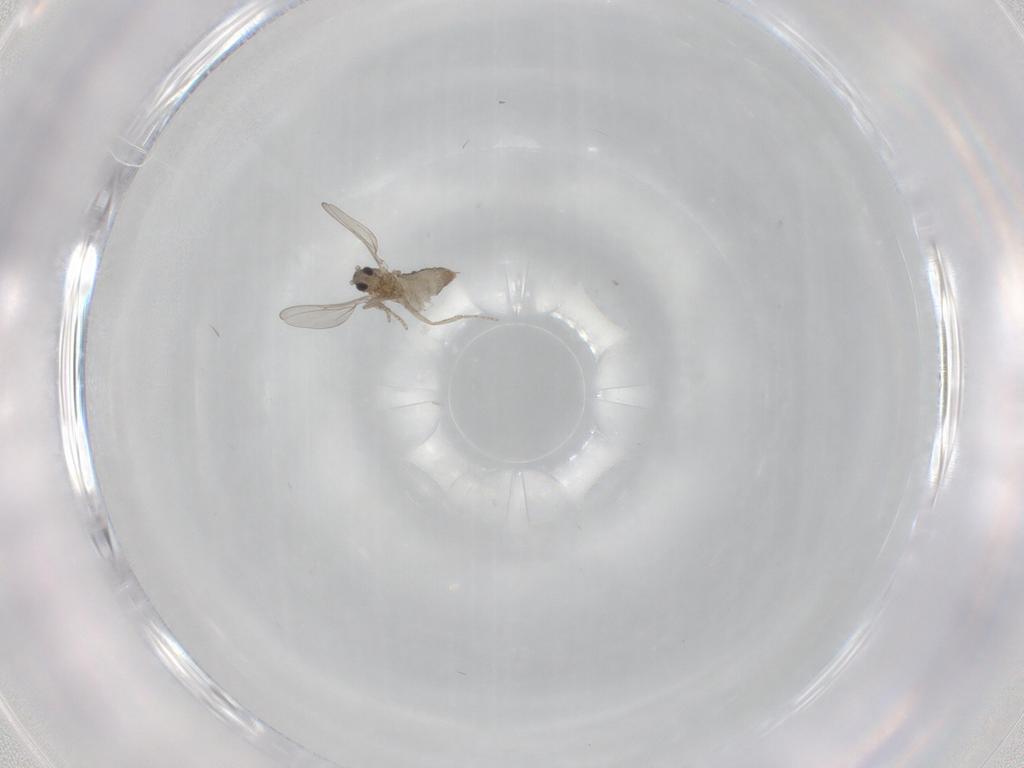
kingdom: Animalia
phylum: Arthropoda
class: Insecta
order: Diptera
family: Cecidomyiidae
